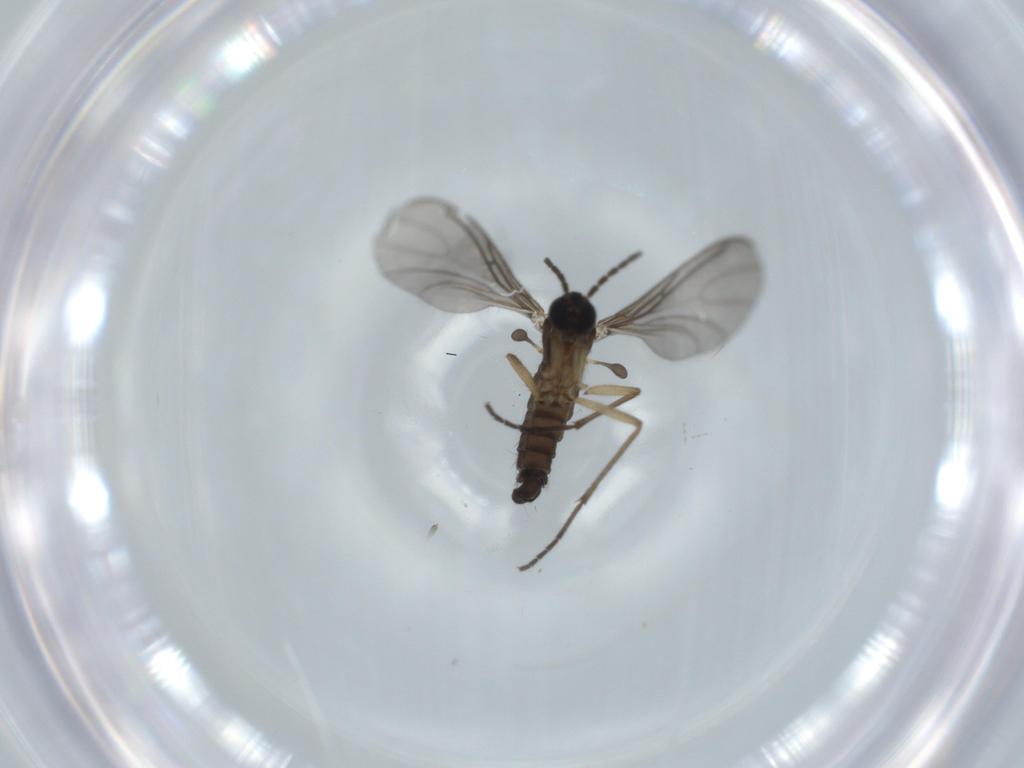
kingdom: Animalia
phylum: Arthropoda
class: Insecta
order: Diptera
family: Sciaridae
